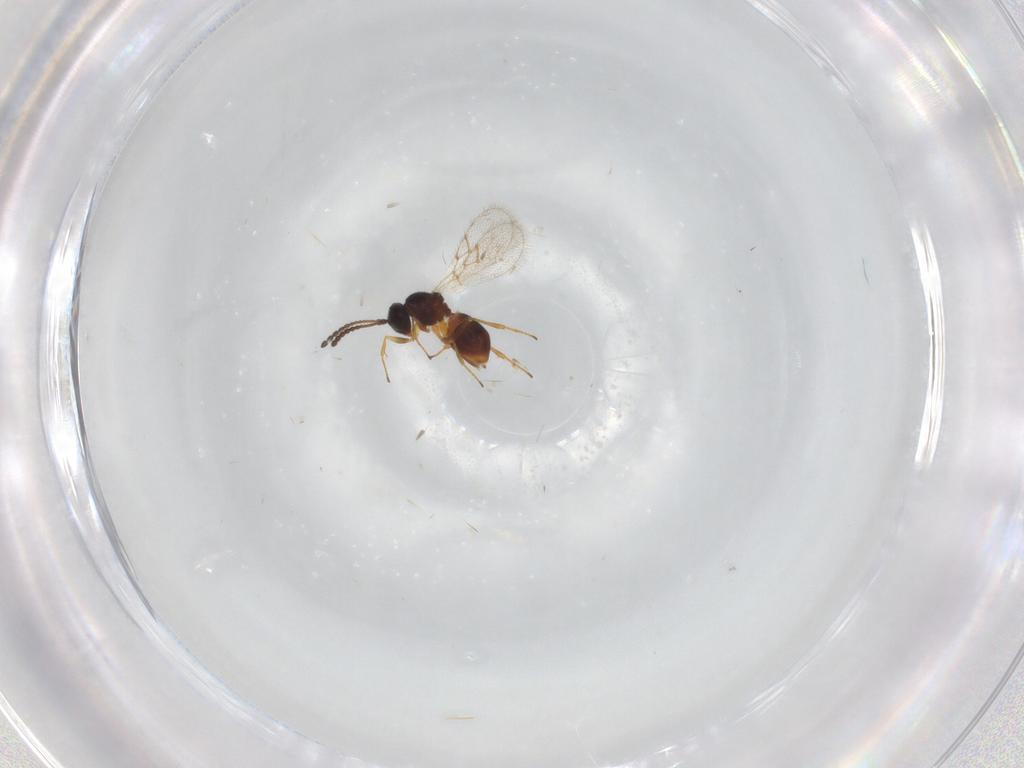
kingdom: Animalia
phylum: Arthropoda
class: Insecta
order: Hymenoptera
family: Figitidae
